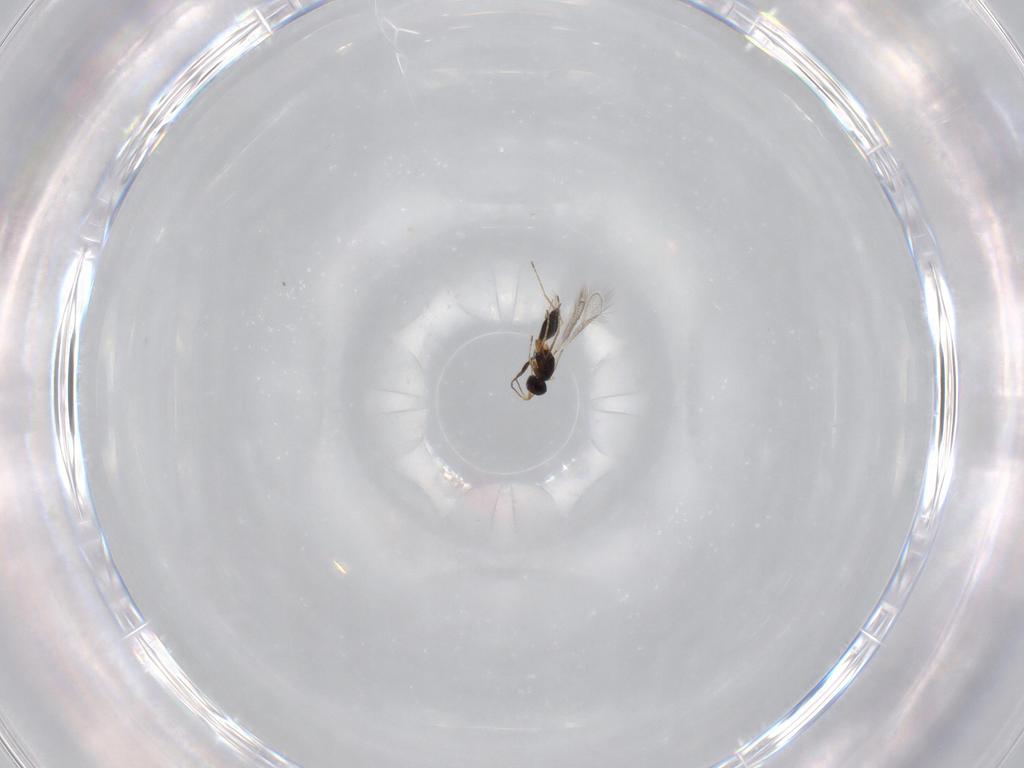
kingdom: Animalia
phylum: Arthropoda
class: Insecta
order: Hymenoptera
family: Mymaridae
